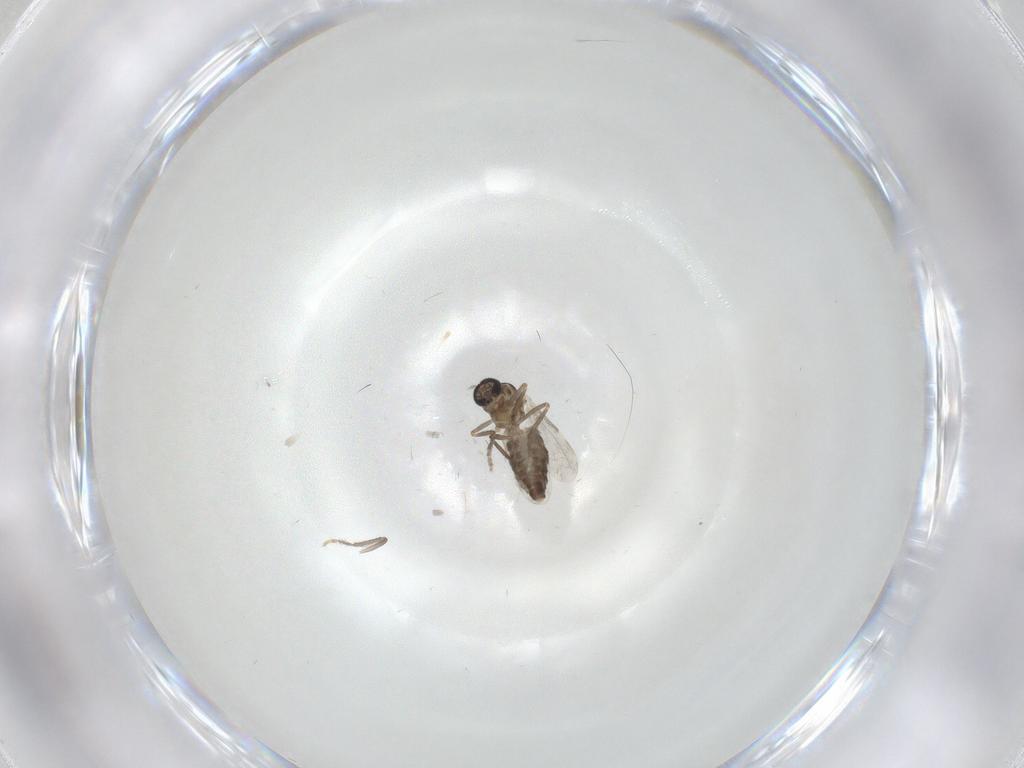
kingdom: Animalia
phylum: Arthropoda
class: Insecta
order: Diptera
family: Ceratopogonidae
